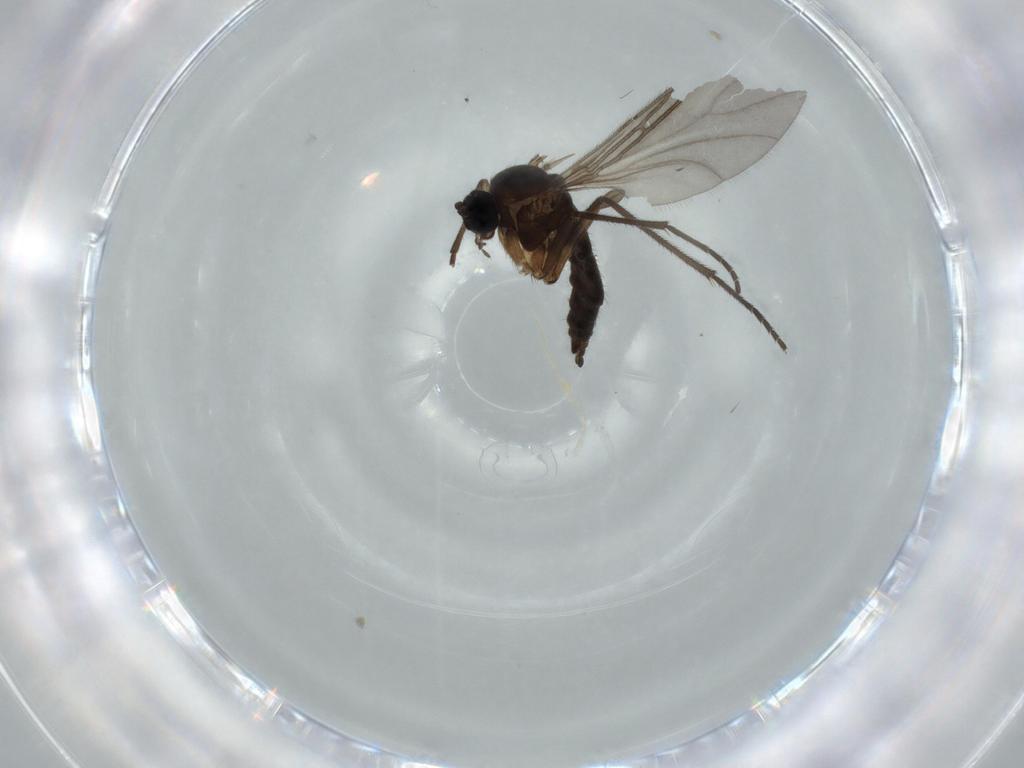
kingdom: Animalia
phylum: Arthropoda
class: Insecta
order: Diptera
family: Sciaridae
